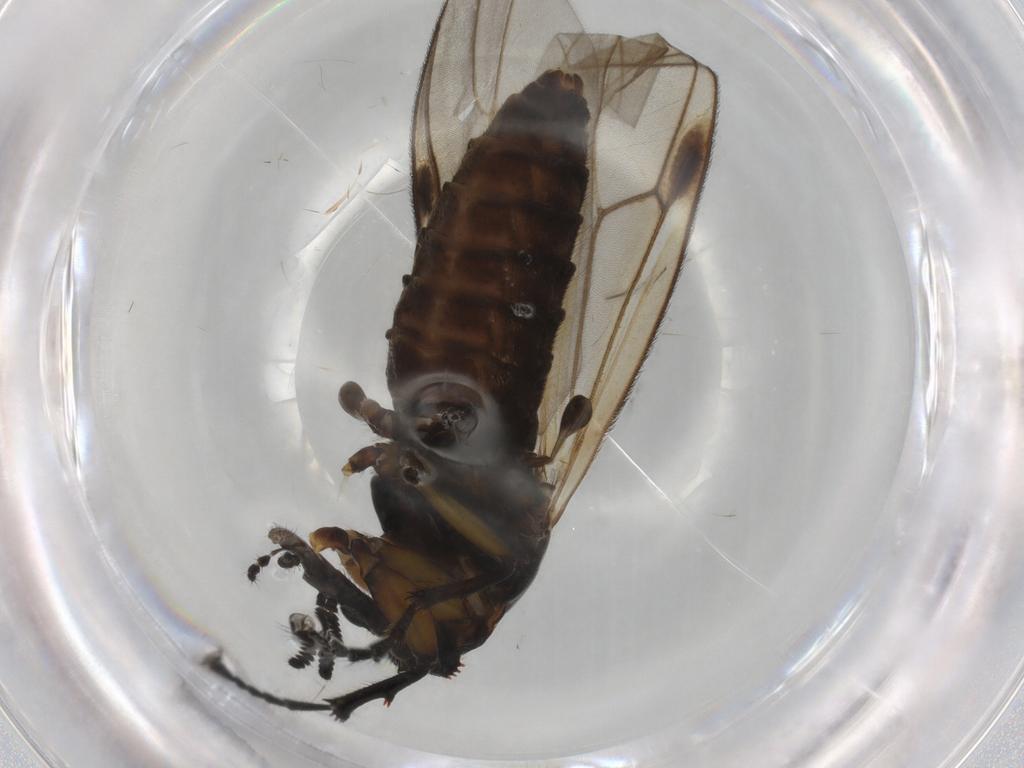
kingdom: Animalia
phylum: Arthropoda
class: Insecta
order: Diptera
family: Bibionidae
